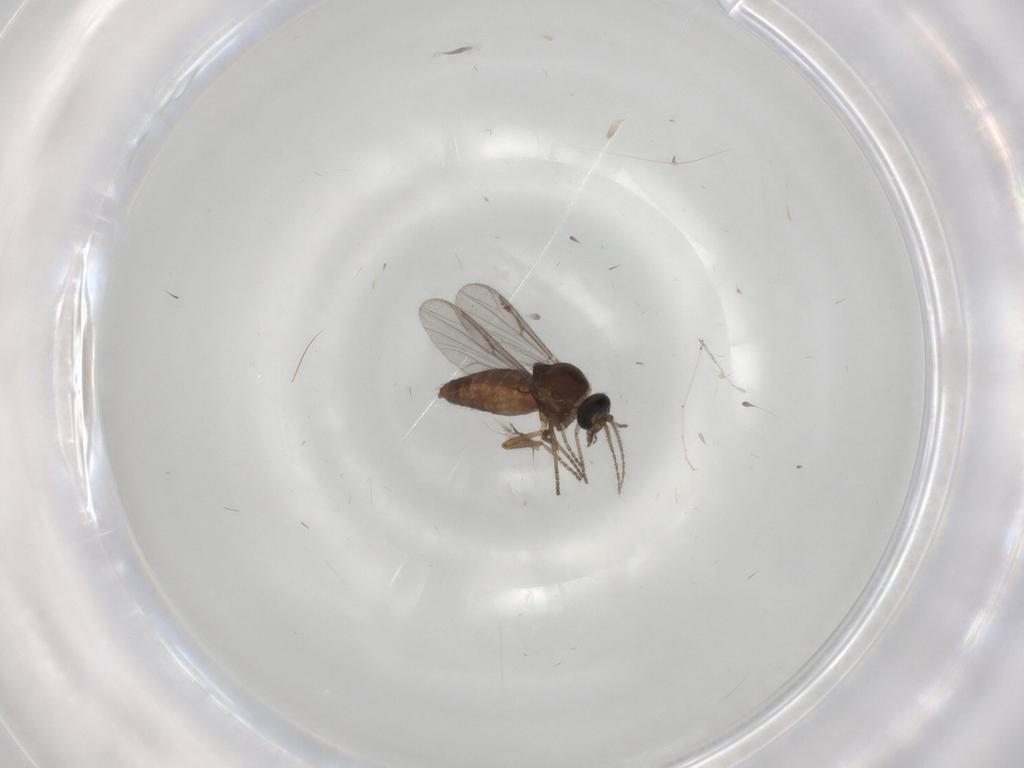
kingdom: Animalia
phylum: Arthropoda
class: Insecta
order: Diptera
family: Ceratopogonidae
